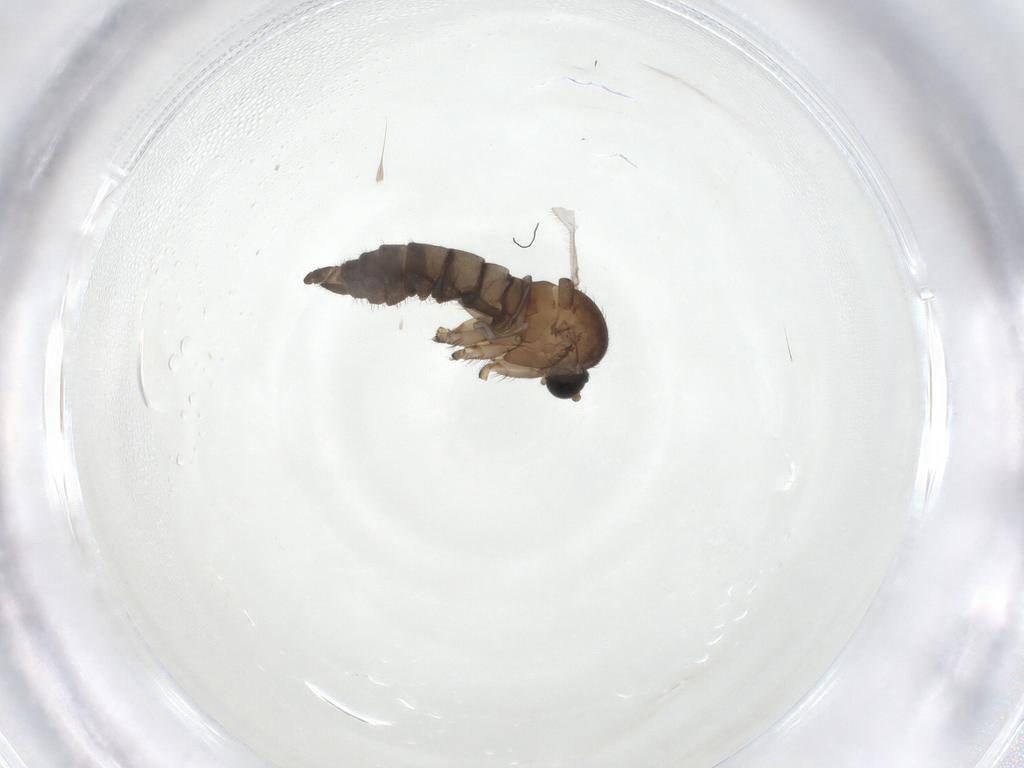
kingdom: Animalia
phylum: Arthropoda
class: Insecta
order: Diptera
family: Sciaridae
